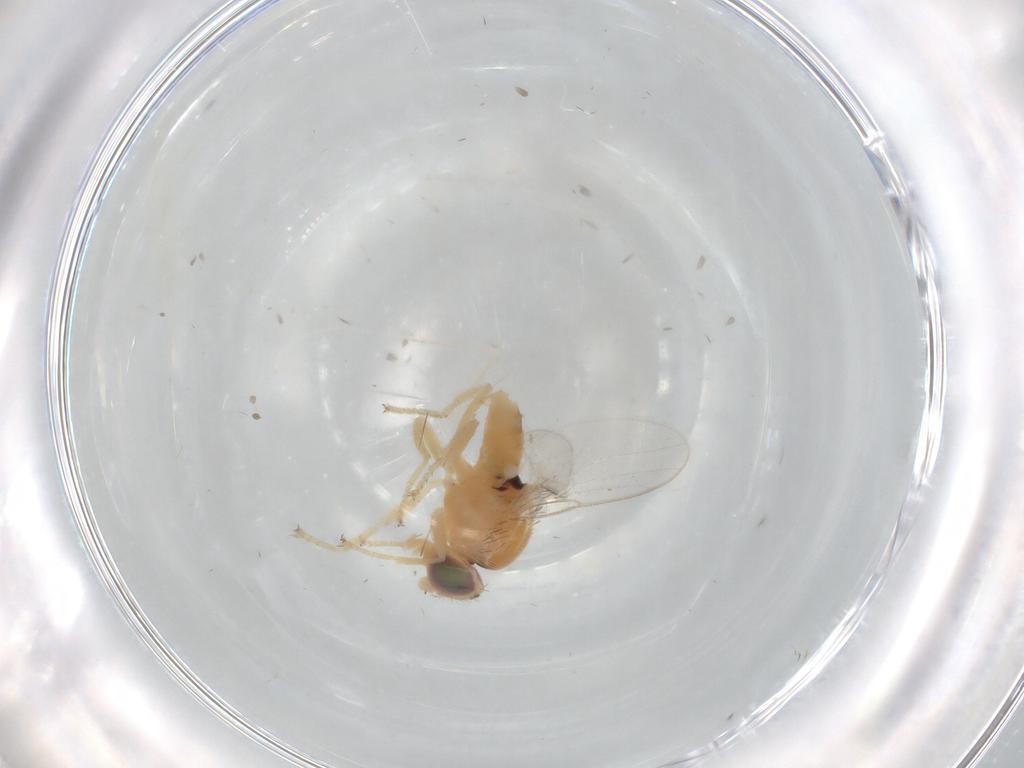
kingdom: Animalia
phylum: Arthropoda
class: Insecta
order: Diptera
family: Chloropidae
